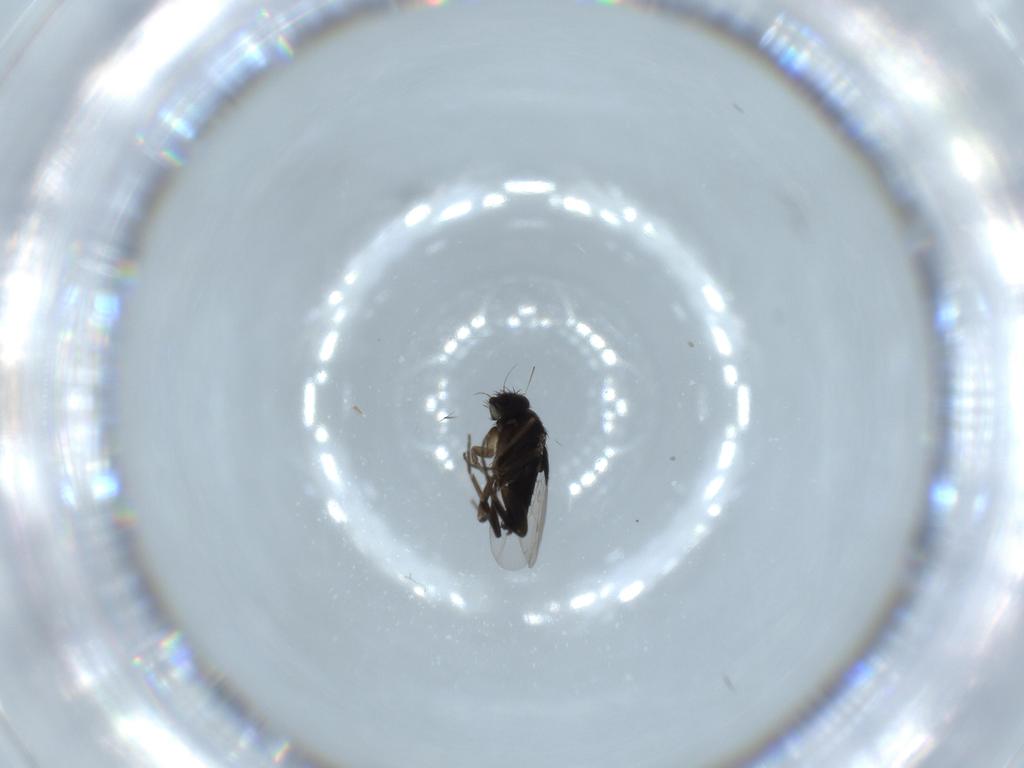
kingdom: Animalia
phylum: Arthropoda
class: Insecta
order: Diptera
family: Phoridae
